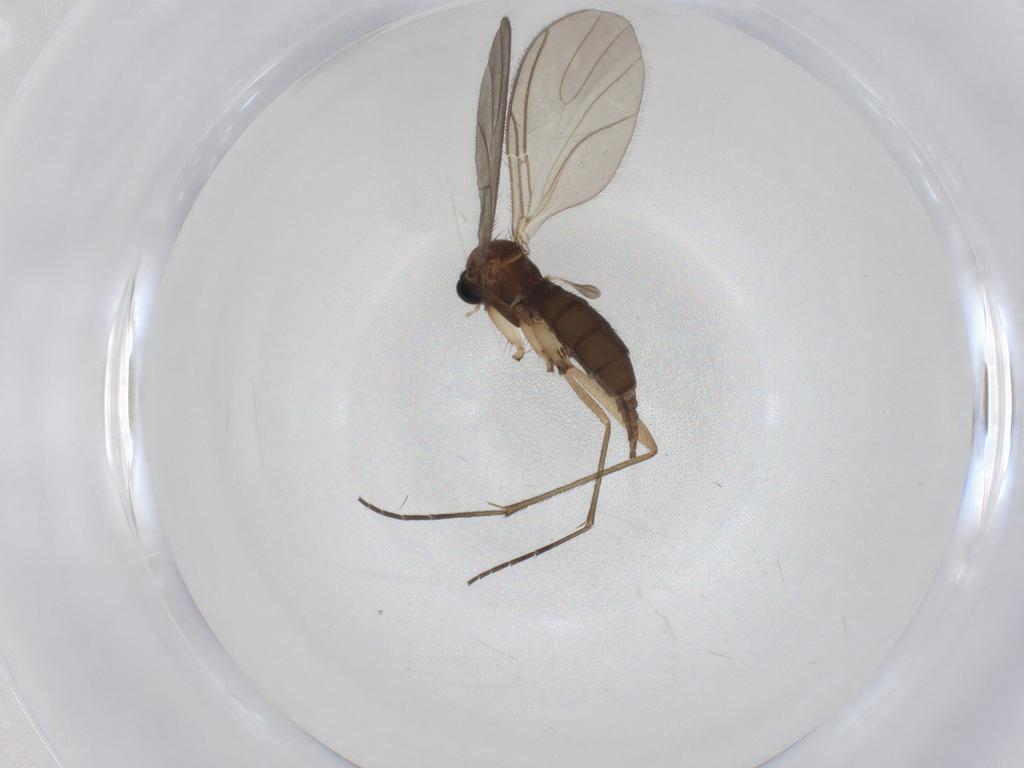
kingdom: Animalia
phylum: Arthropoda
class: Insecta
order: Diptera
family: Sciaridae
